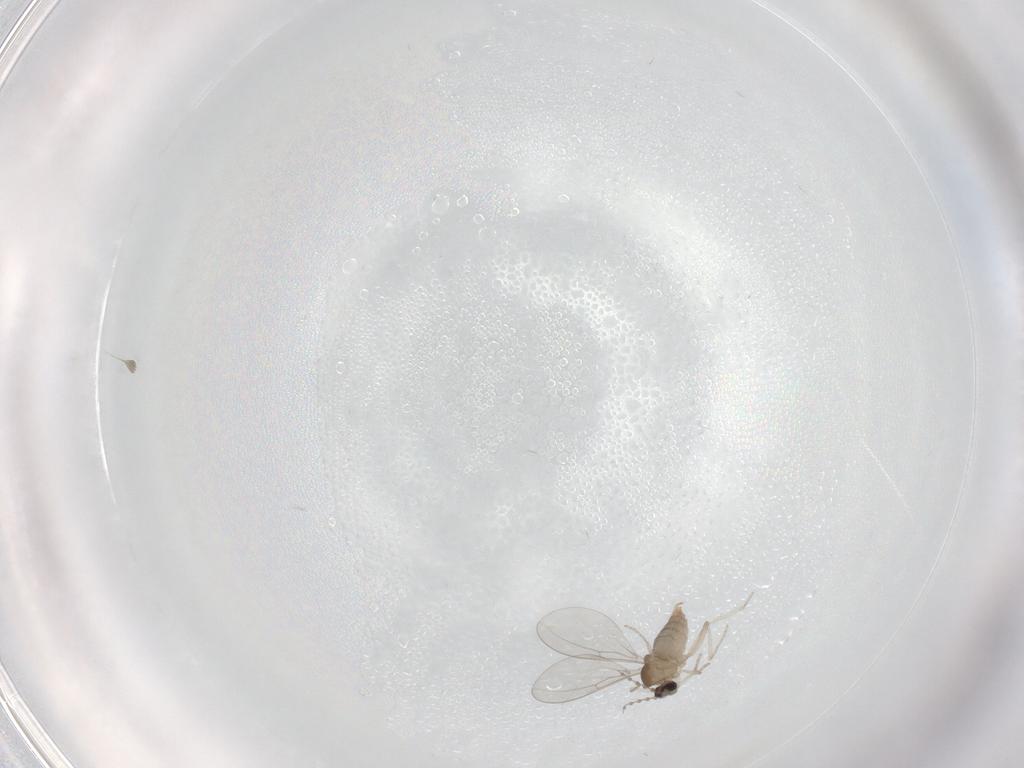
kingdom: Animalia
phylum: Arthropoda
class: Insecta
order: Diptera
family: Cecidomyiidae
